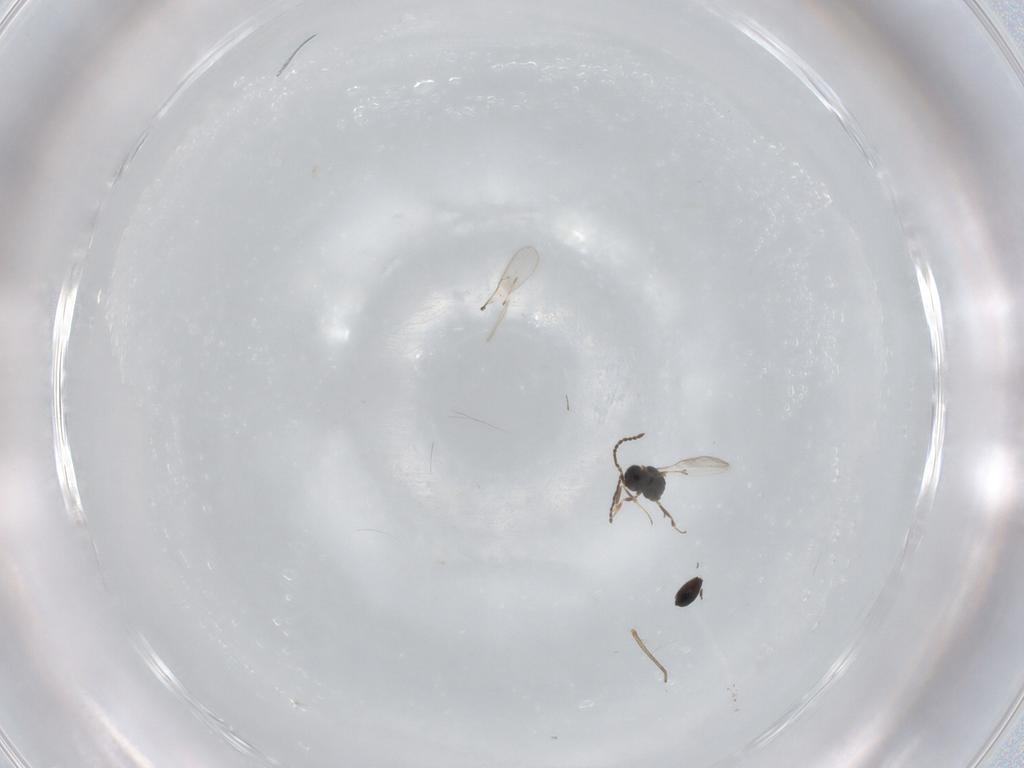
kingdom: Animalia
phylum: Arthropoda
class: Insecta
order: Hymenoptera
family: Scelionidae
